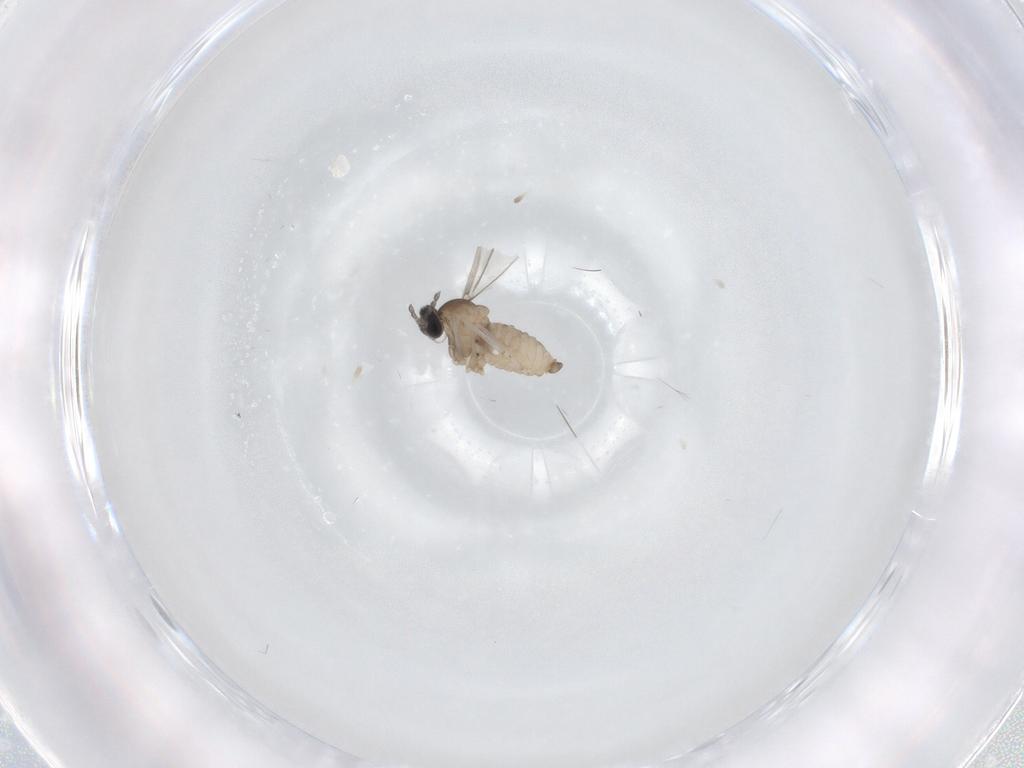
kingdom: Animalia
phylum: Arthropoda
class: Insecta
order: Diptera
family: Cecidomyiidae
